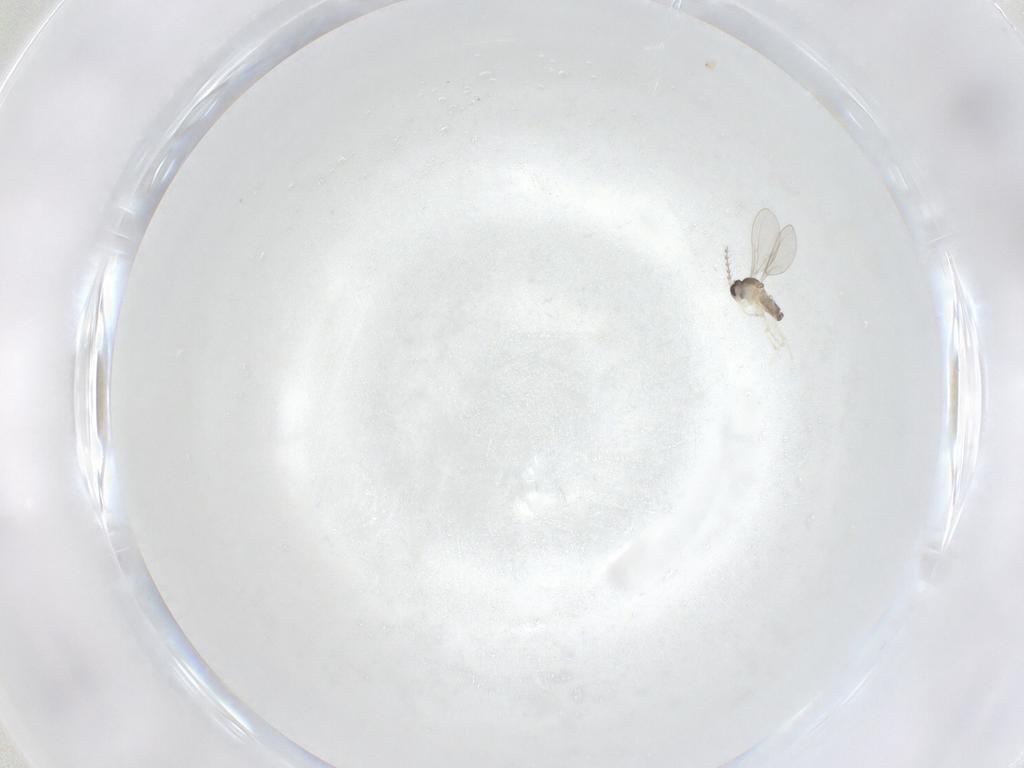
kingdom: Animalia
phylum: Arthropoda
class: Insecta
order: Diptera
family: Cecidomyiidae
